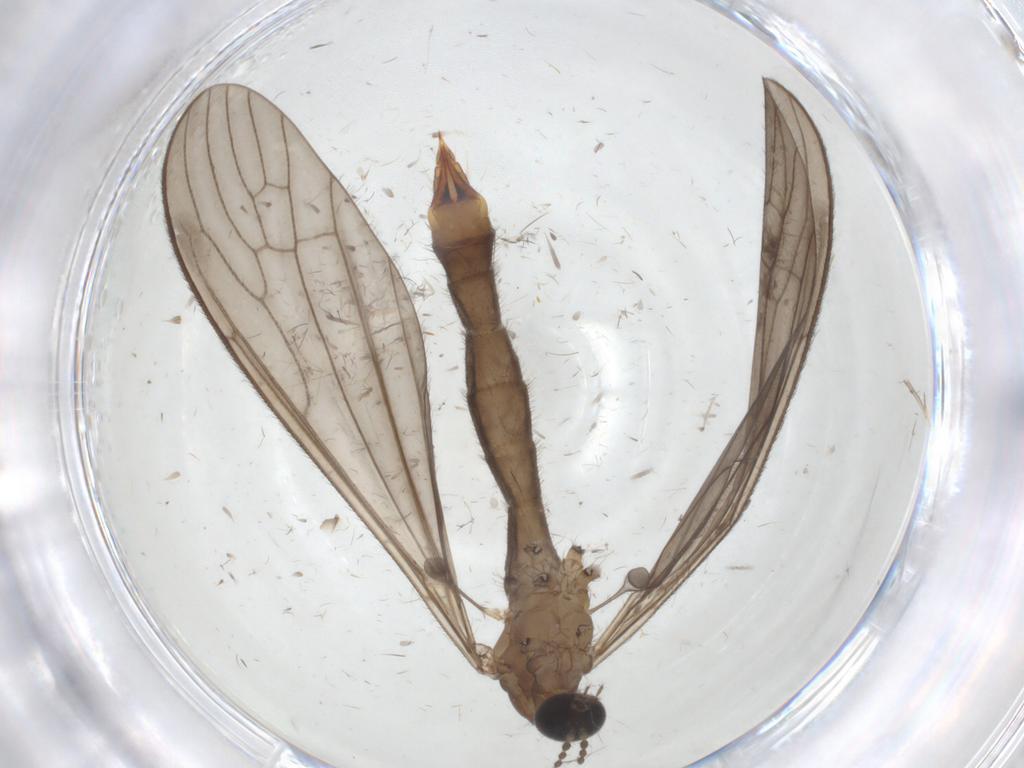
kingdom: Animalia
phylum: Arthropoda
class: Insecta
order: Diptera
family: Limoniidae
